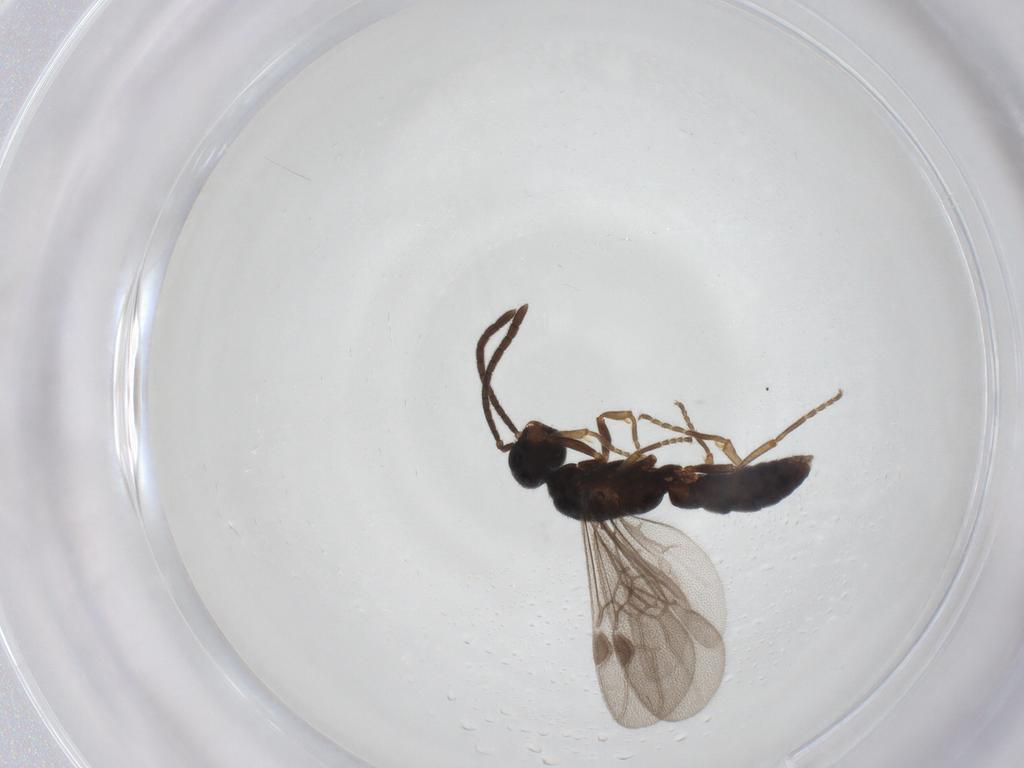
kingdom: Animalia
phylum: Arthropoda
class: Insecta
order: Hymenoptera
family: Formicidae
